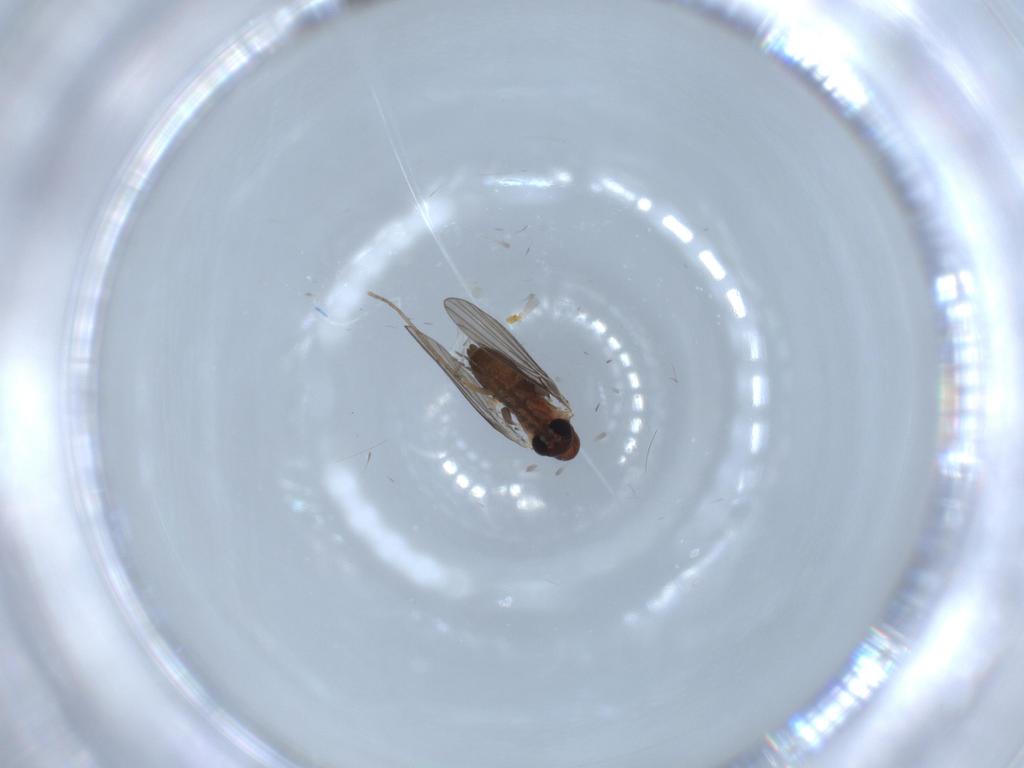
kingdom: Animalia
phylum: Arthropoda
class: Insecta
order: Diptera
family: Psychodidae
